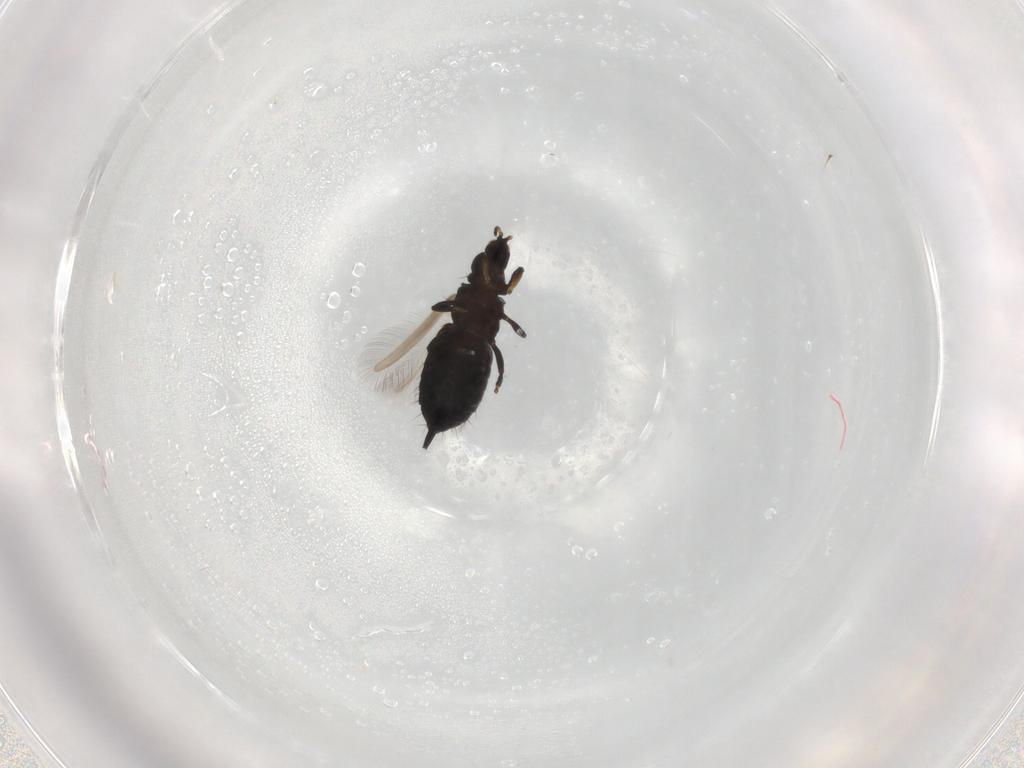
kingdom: Animalia
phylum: Arthropoda
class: Insecta
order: Thysanoptera
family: Phlaeothripidae
